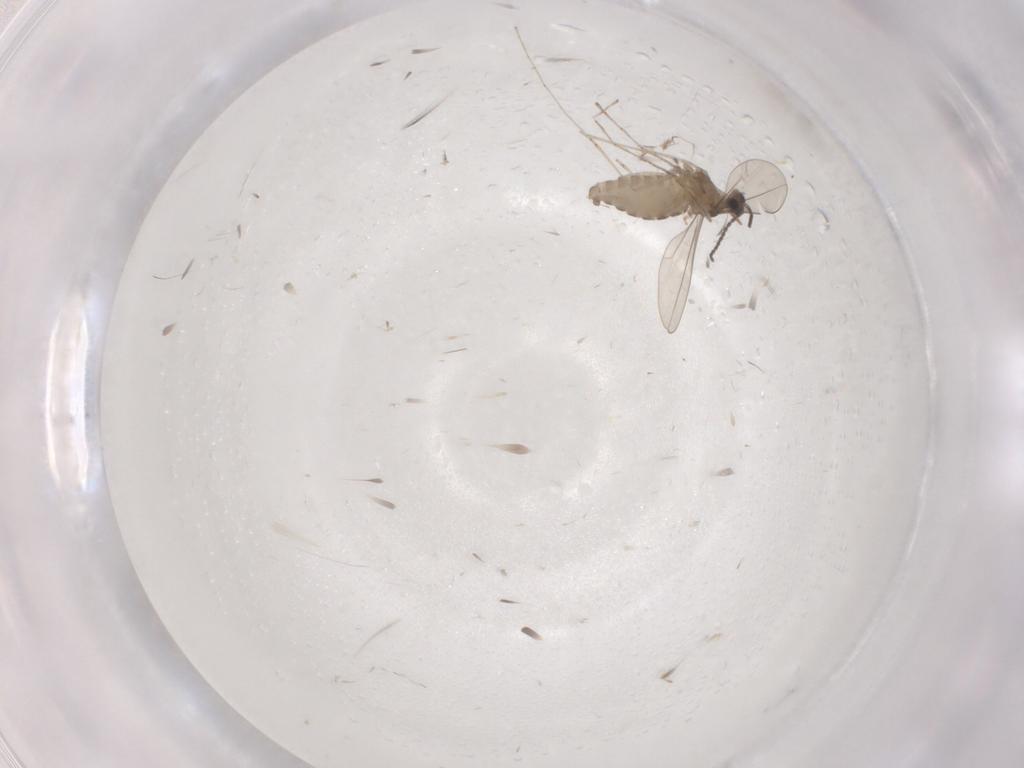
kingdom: Animalia
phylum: Arthropoda
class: Insecta
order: Diptera
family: Cecidomyiidae
